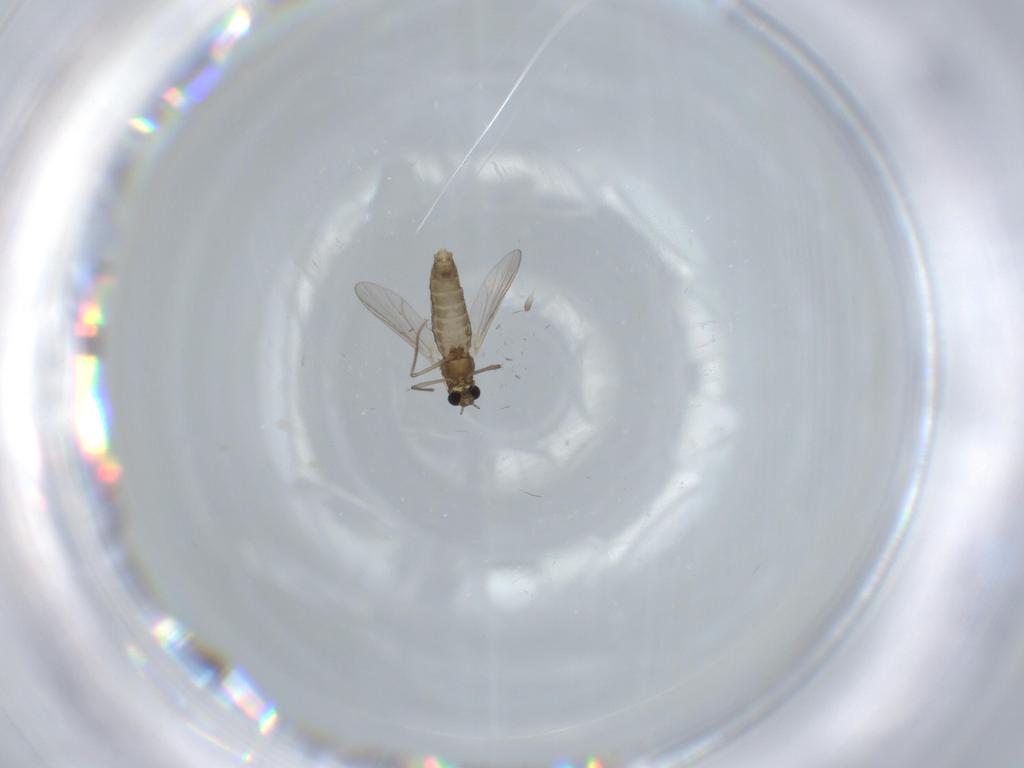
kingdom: Animalia
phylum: Arthropoda
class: Insecta
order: Diptera
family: Chironomidae
